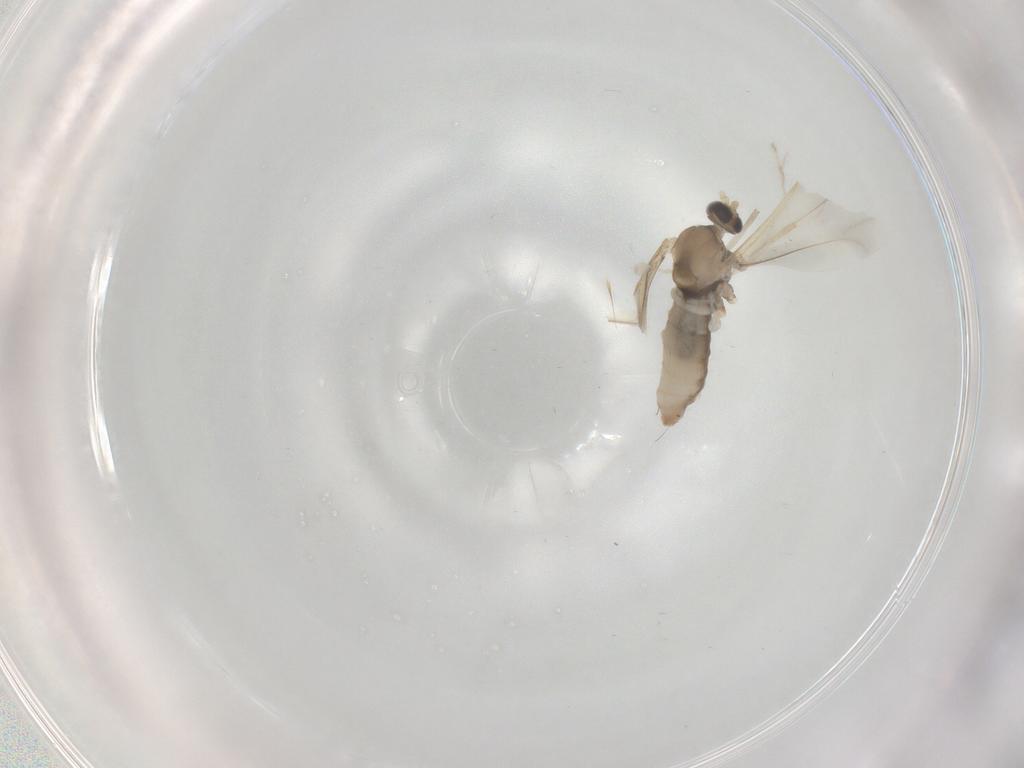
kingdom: Animalia
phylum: Arthropoda
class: Insecta
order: Diptera
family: Cecidomyiidae
